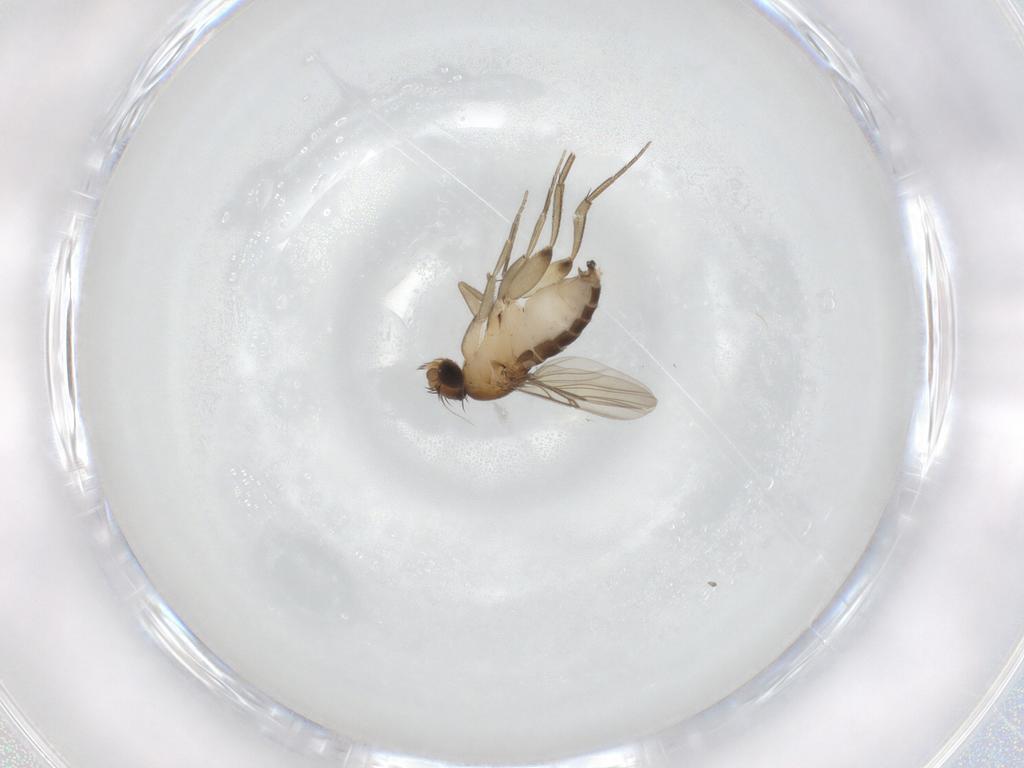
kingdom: Animalia
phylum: Arthropoda
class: Insecta
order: Diptera
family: Phoridae
